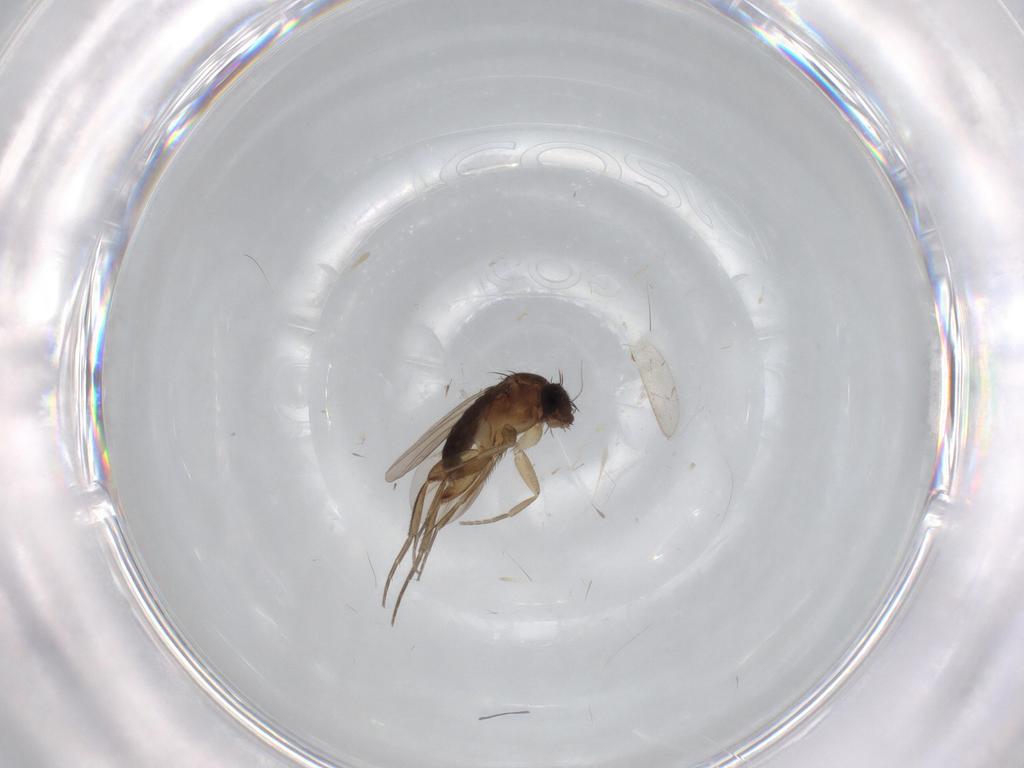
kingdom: Animalia
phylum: Arthropoda
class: Insecta
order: Diptera
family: Phoridae
